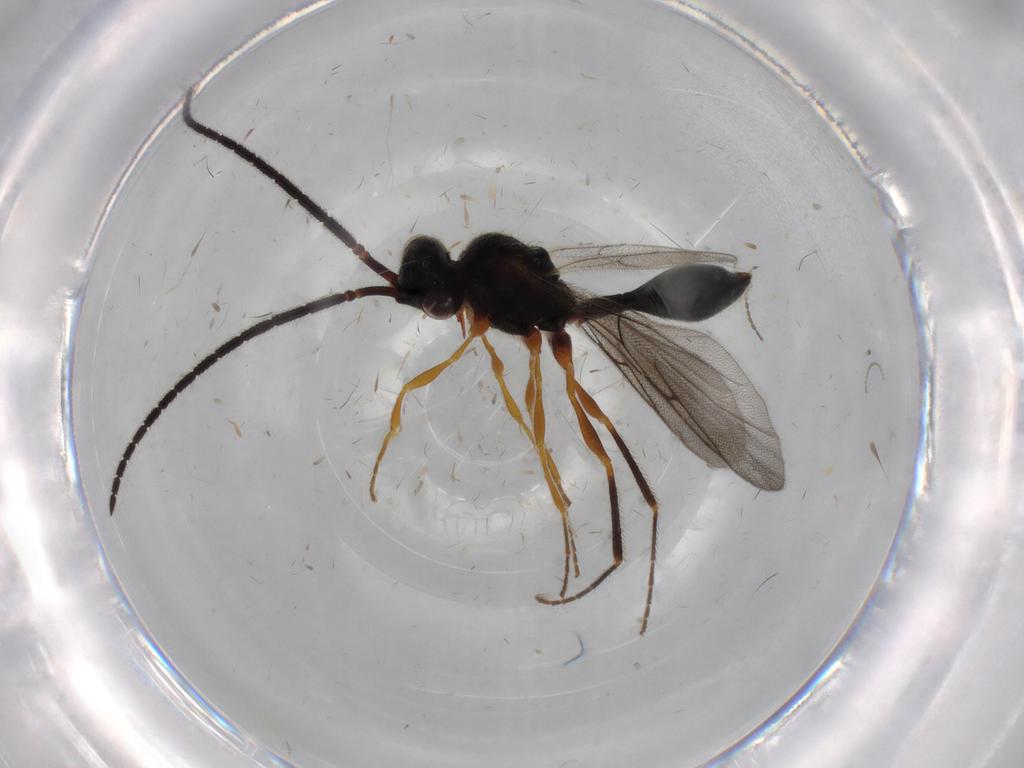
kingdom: Animalia
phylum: Arthropoda
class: Insecta
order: Hymenoptera
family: Diapriidae
